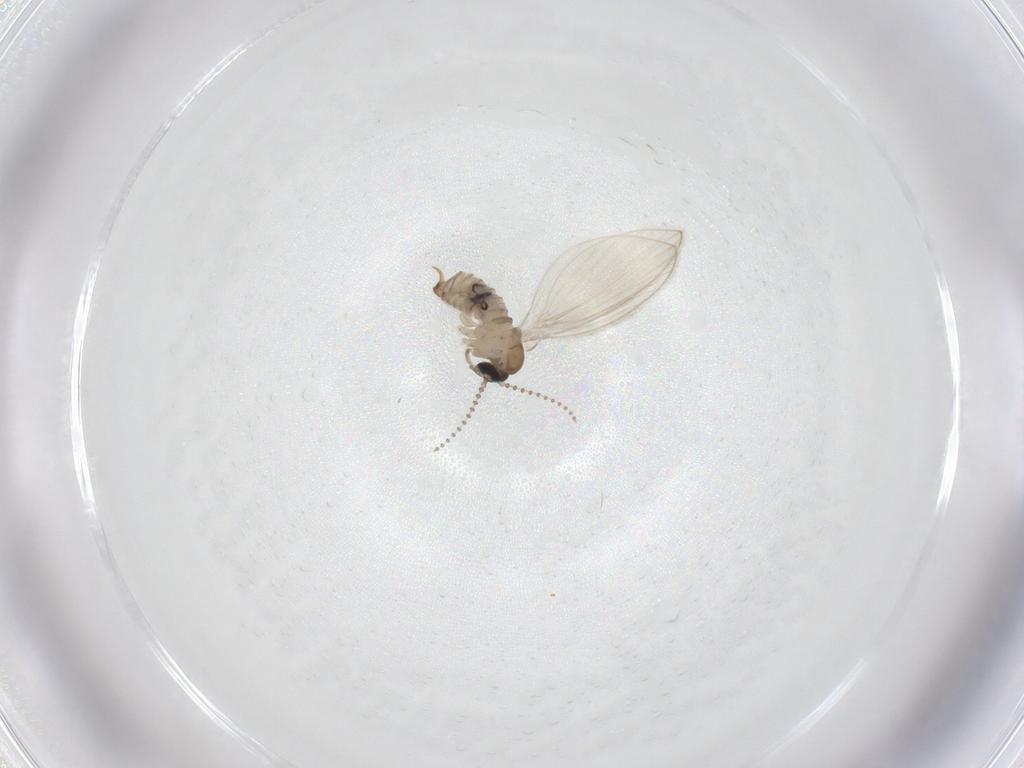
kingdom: Animalia
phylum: Arthropoda
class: Insecta
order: Diptera
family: Psychodidae
